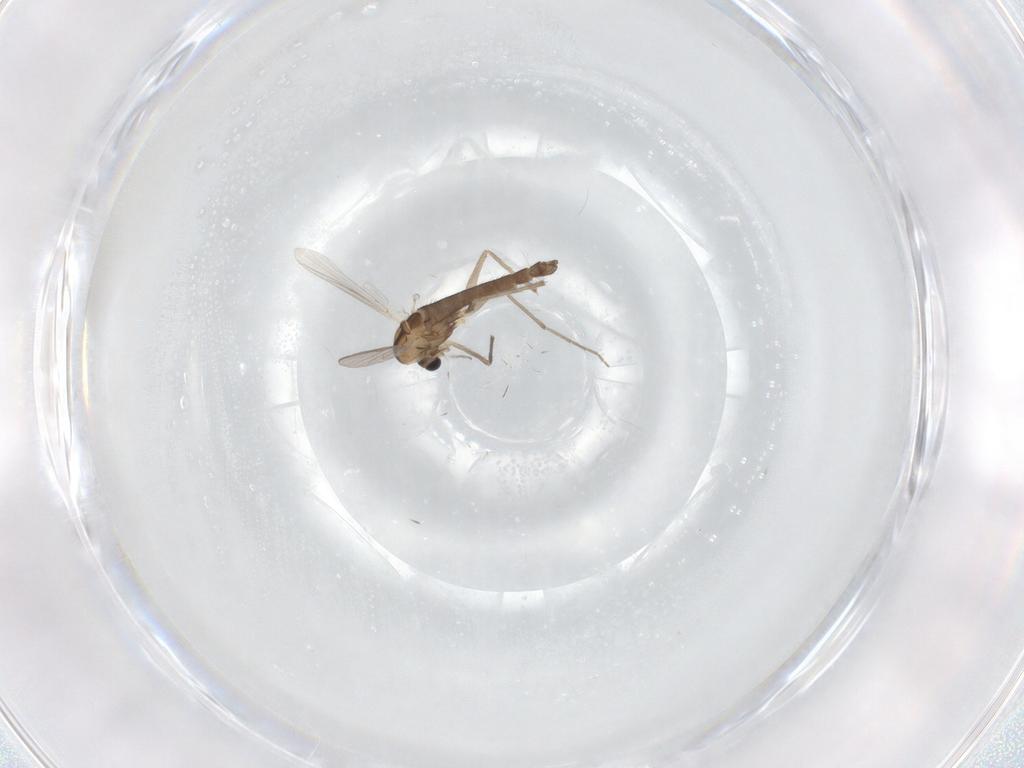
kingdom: Animalia
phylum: Arthropoda
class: Insecta
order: Diptera
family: Chironomidae
